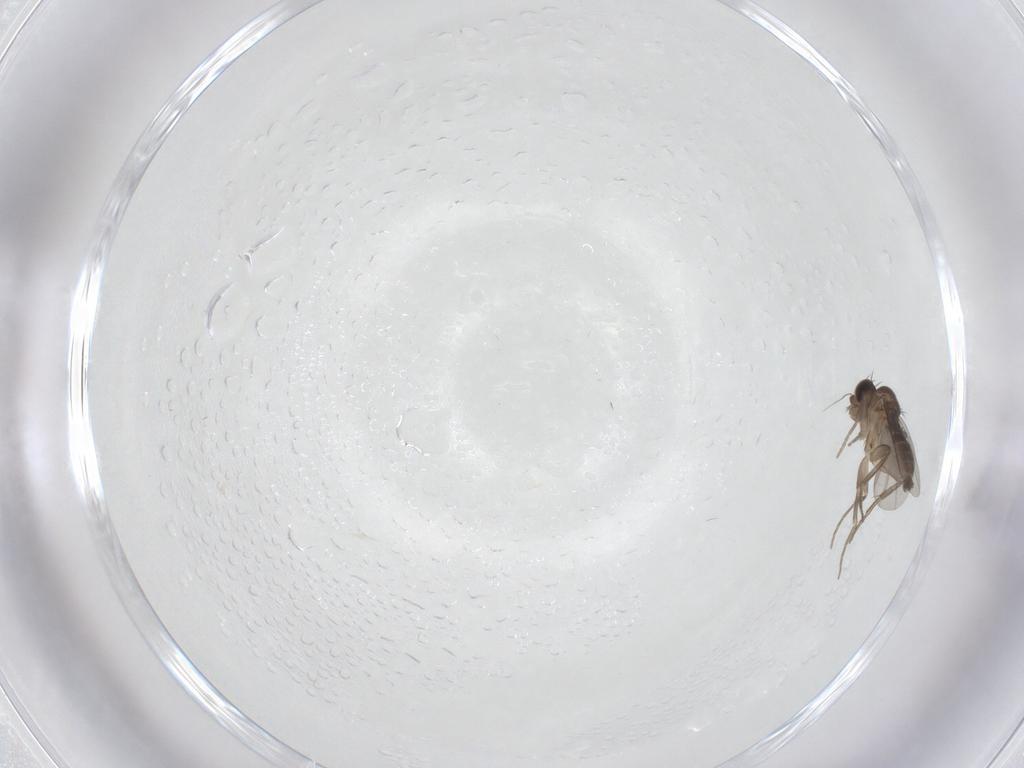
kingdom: Animalia
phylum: Arthropoda
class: Insecta
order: Diptera
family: Phoridae
